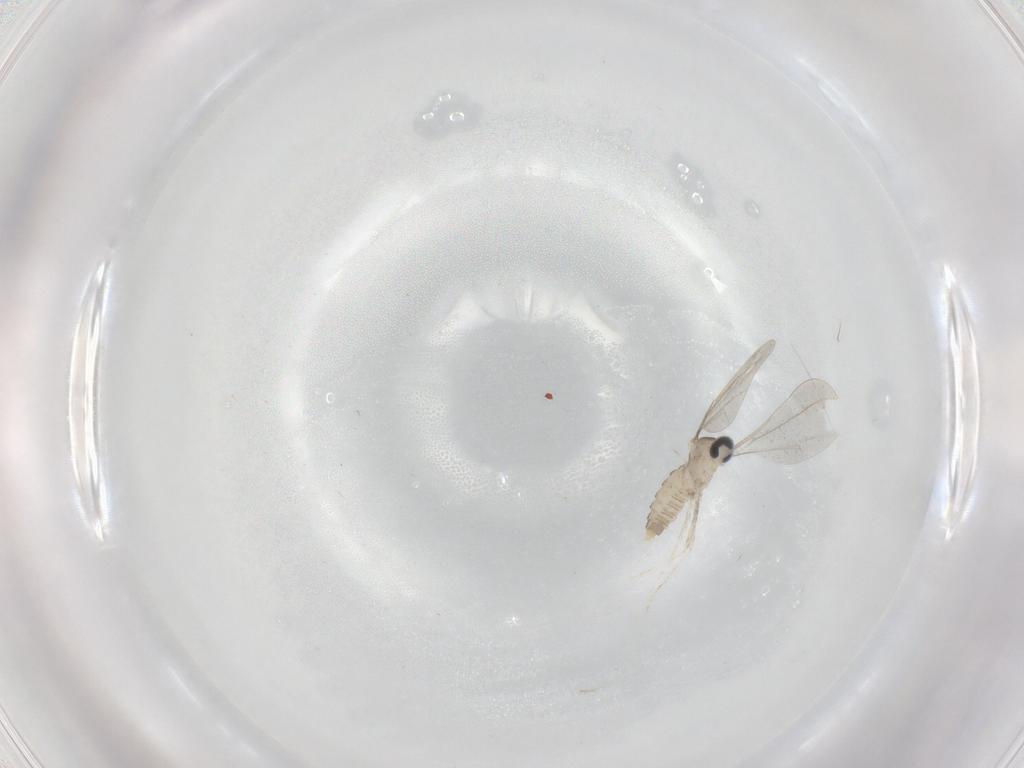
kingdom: Animalia
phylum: Arthropoda
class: Insecta
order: Diptera
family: Cecidomyiidae
